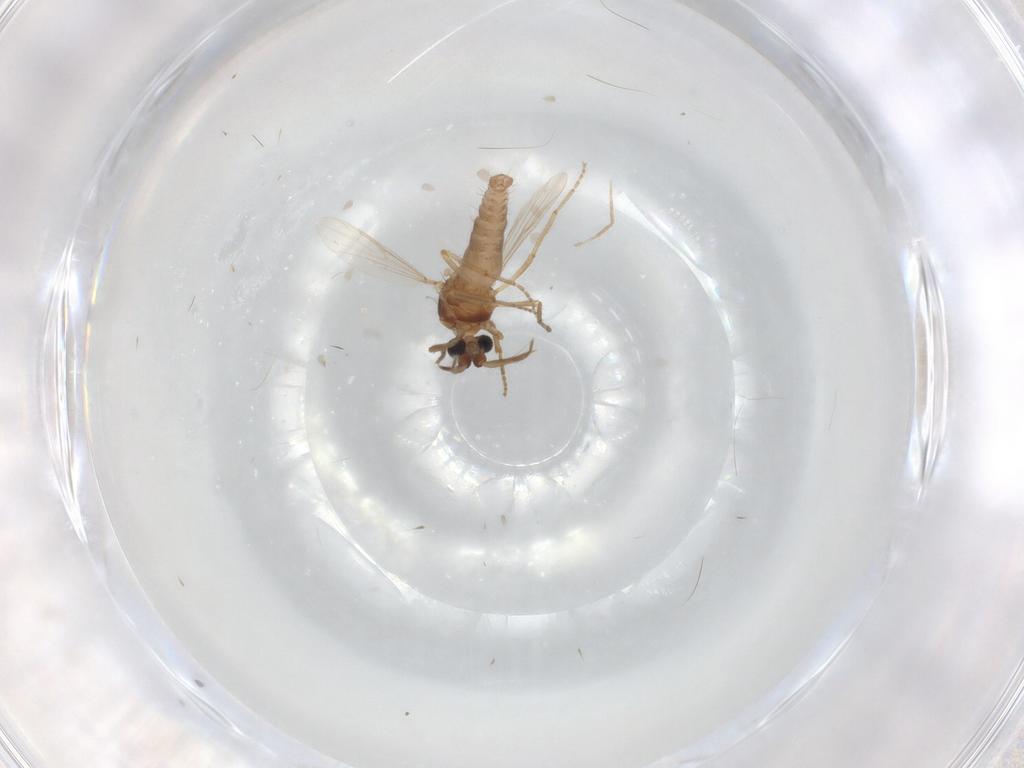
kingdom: Animalia
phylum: Arthropoda
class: Insecta
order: Diptera
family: Ceratopogonidae
